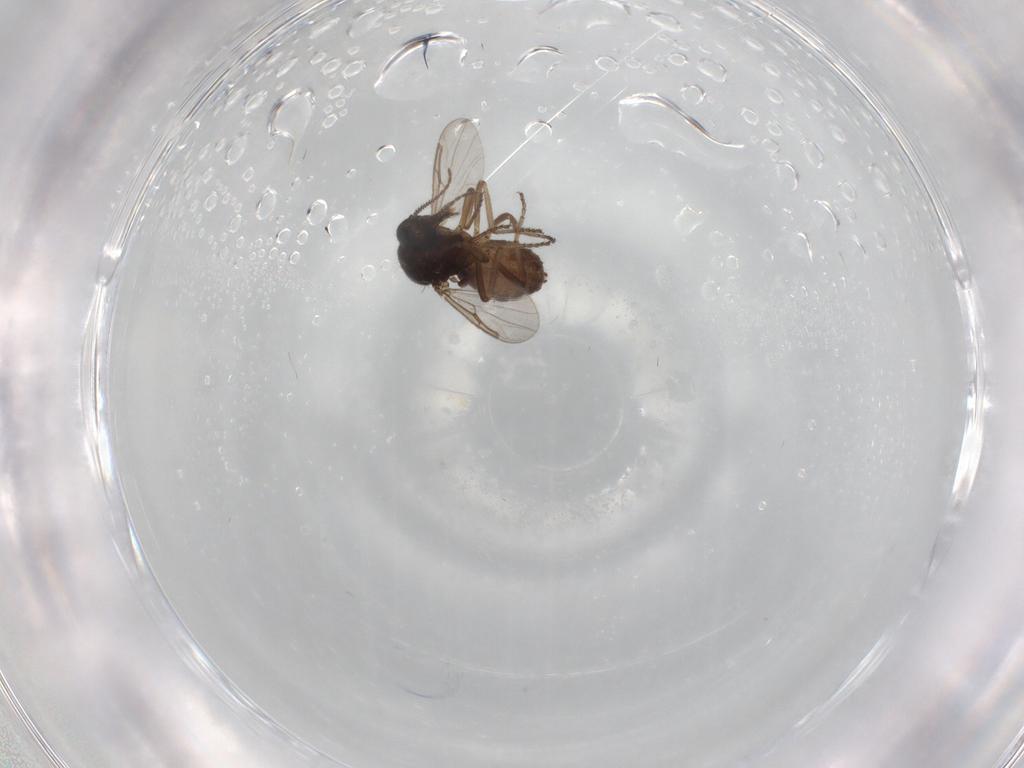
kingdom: Animalia
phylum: Arthropoda
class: Insecta
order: Diptera
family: Ceratopogonidae
